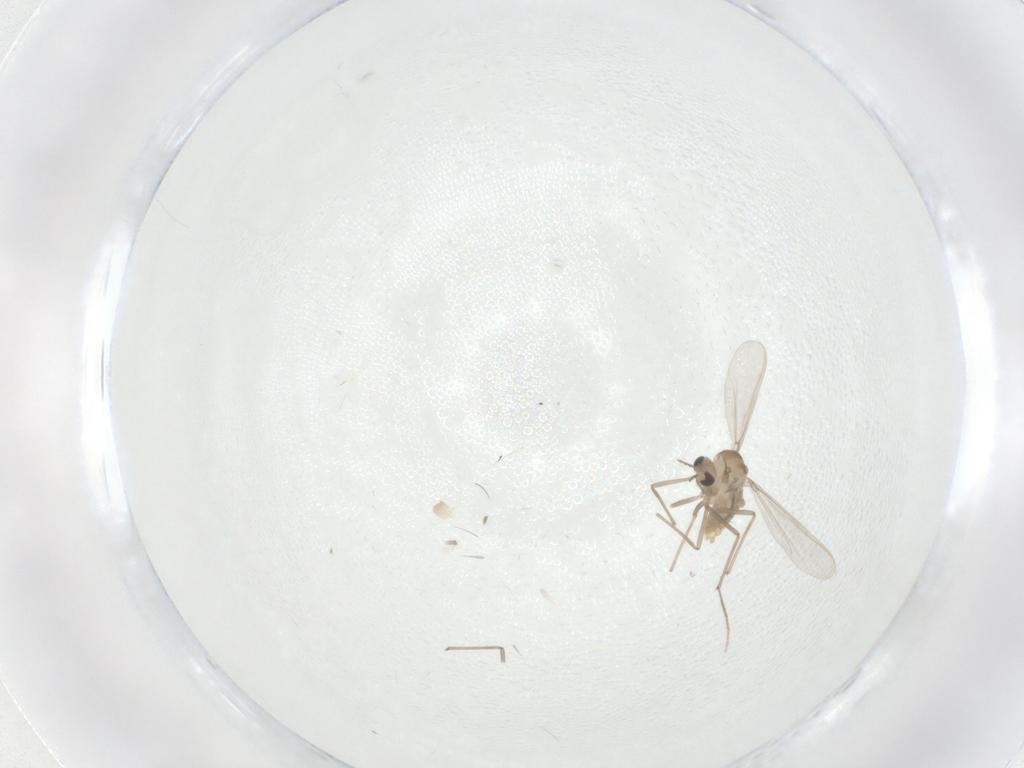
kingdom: Animalia
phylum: Arthropoda
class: Insecta
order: Diptera
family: Chironomidae
